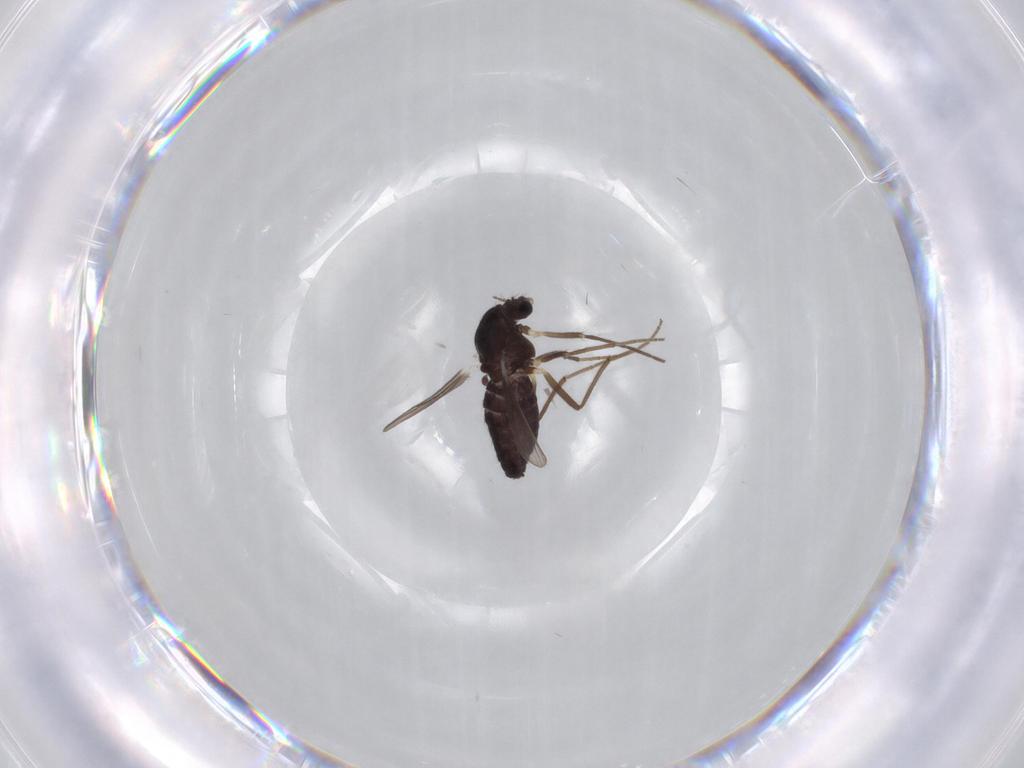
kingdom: Animalia
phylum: Arthropoda
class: Insecta
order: Diptera
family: Chironomidae
